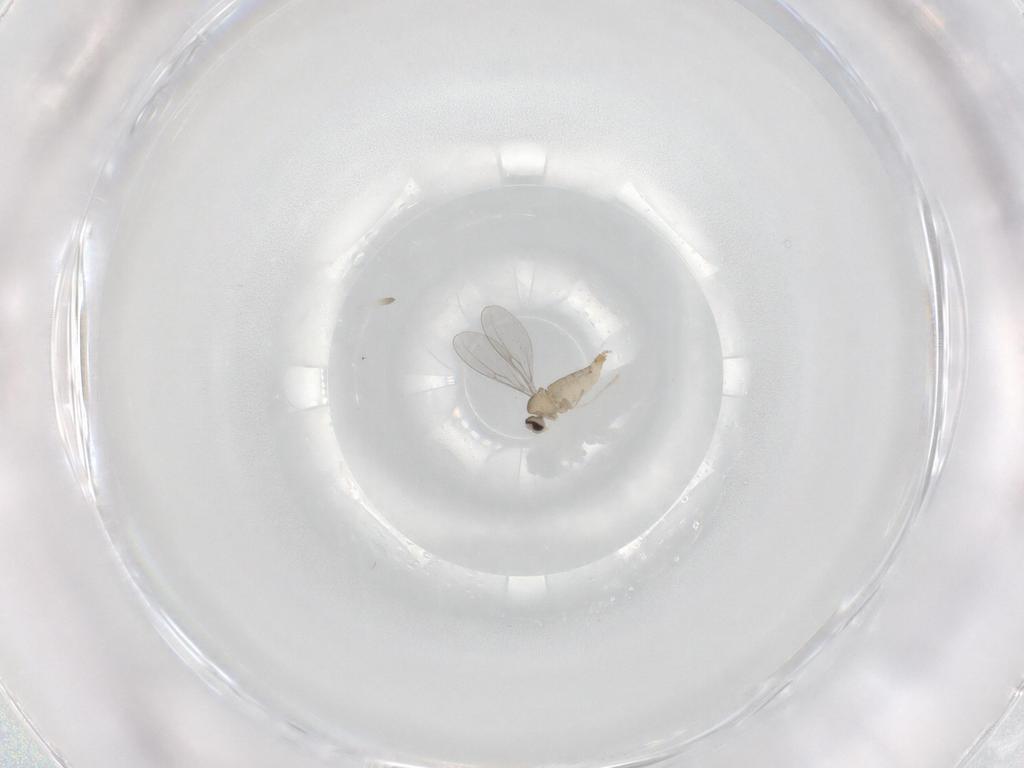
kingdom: Animalia
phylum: Arthropoda
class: Insecta
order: Diptera
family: Cecidomyiidae
